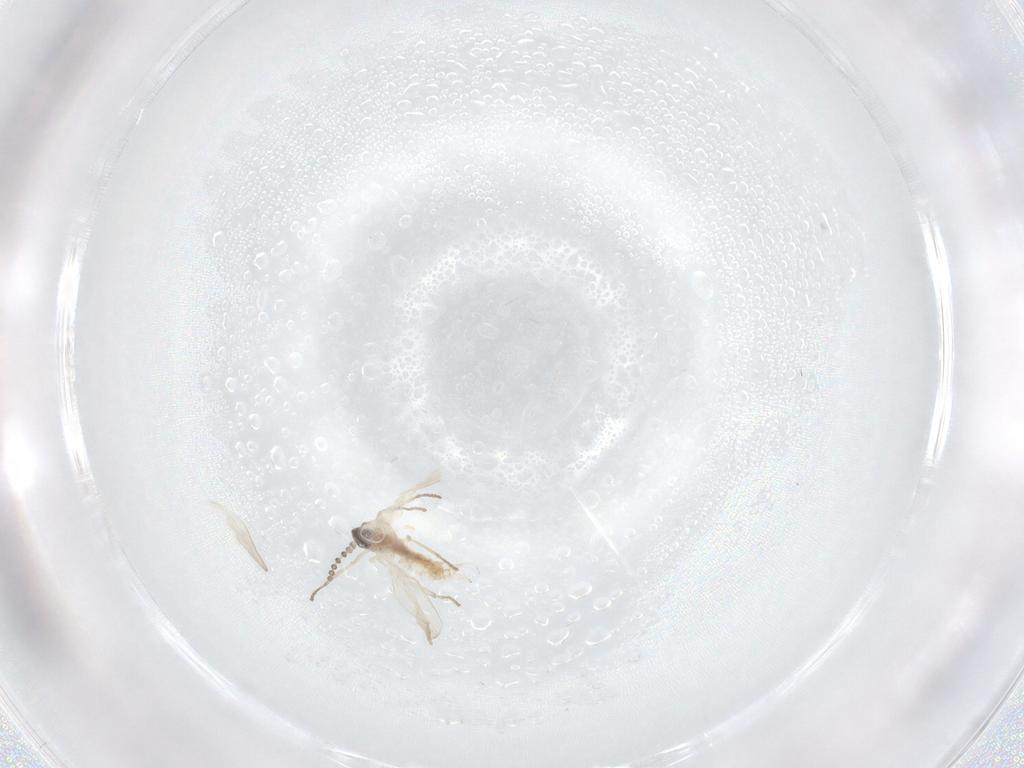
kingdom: Animalia
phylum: Arthropoda
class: Insecta
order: Diptera
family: Psychodidae
